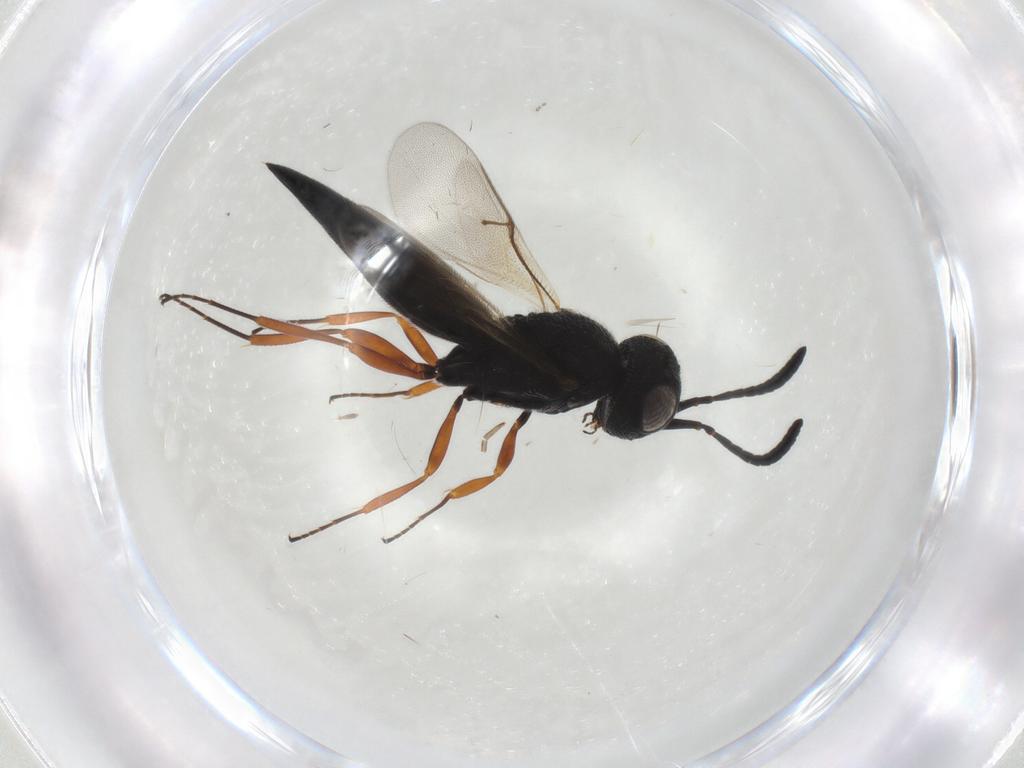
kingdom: Animalia
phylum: Arthropoda
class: Insecta
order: Hymenoptera
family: Scelionidae
